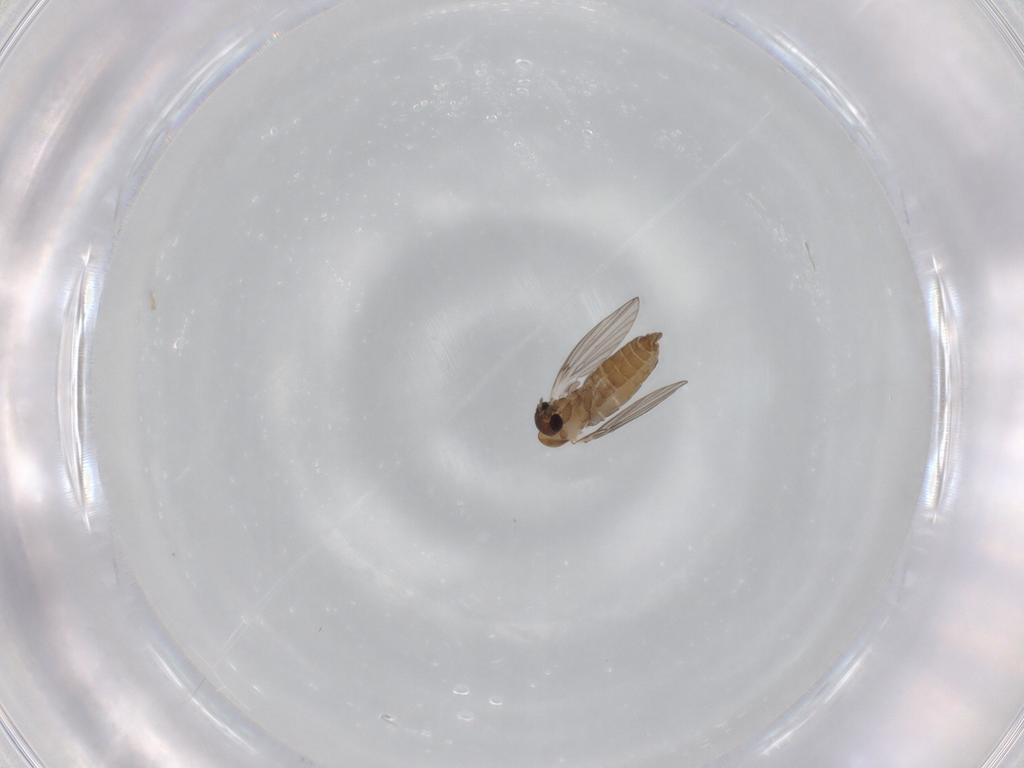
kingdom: Animalia
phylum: Arthropoda
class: Insecta
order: Diptera
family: Psychodidae
